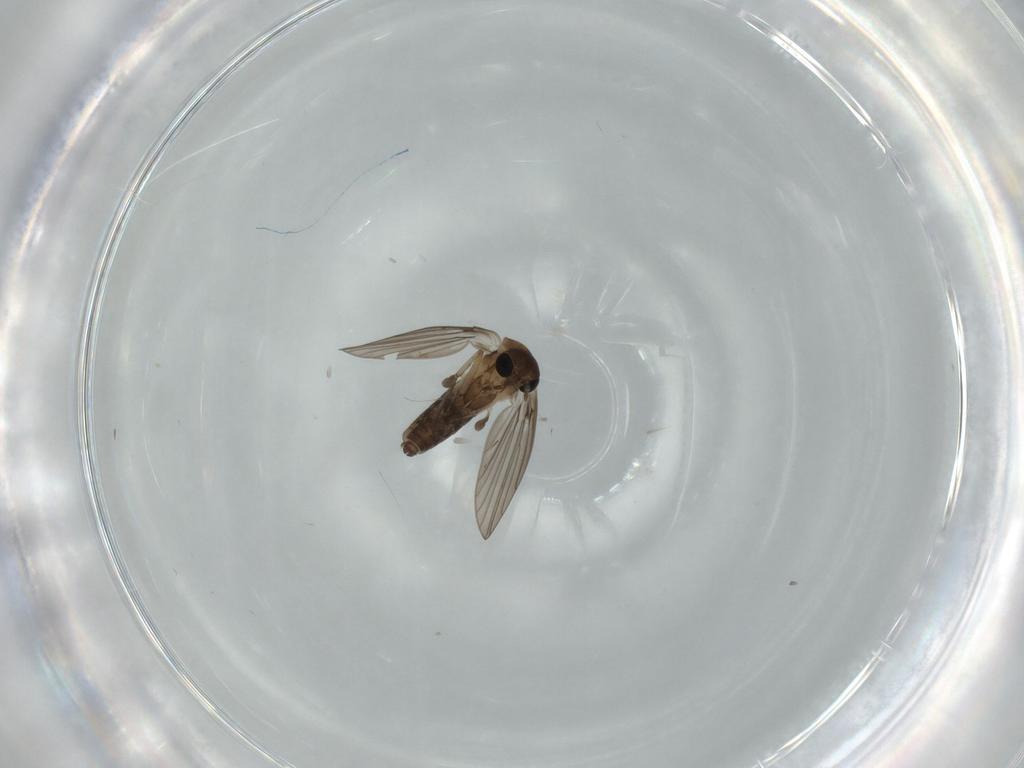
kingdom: Animalia
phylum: Arthropoda
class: Insecta
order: Diptera
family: Psychodidae
